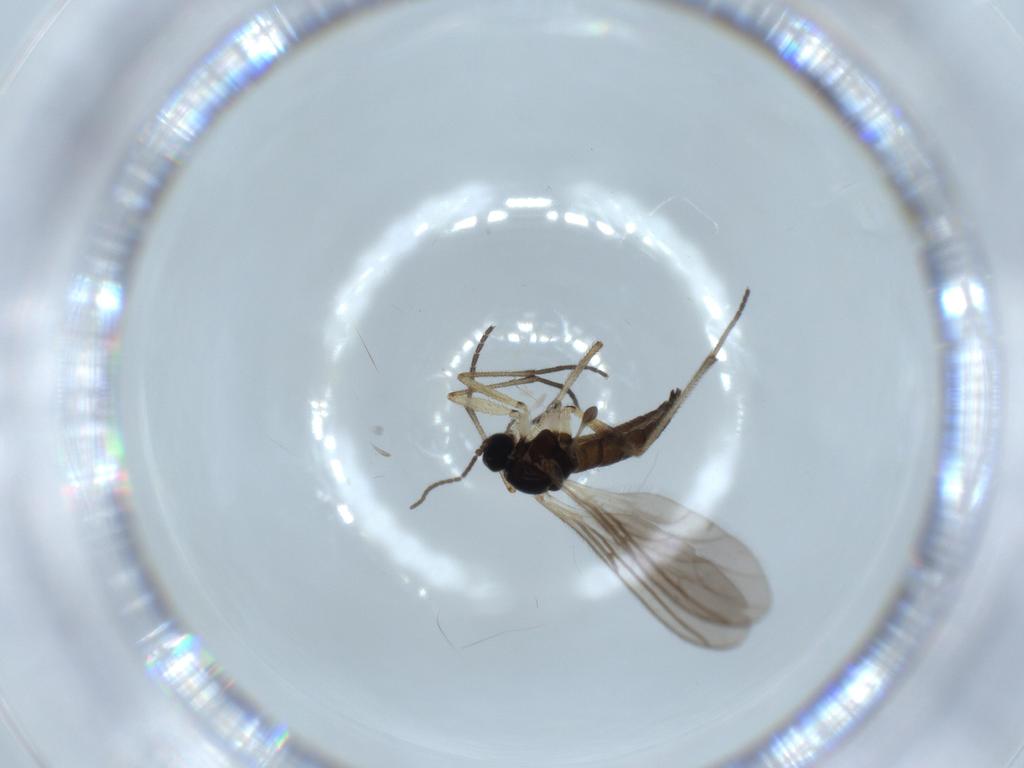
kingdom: Animalia
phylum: Arthropoda
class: Insecta
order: Diptera
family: Sciaridae
